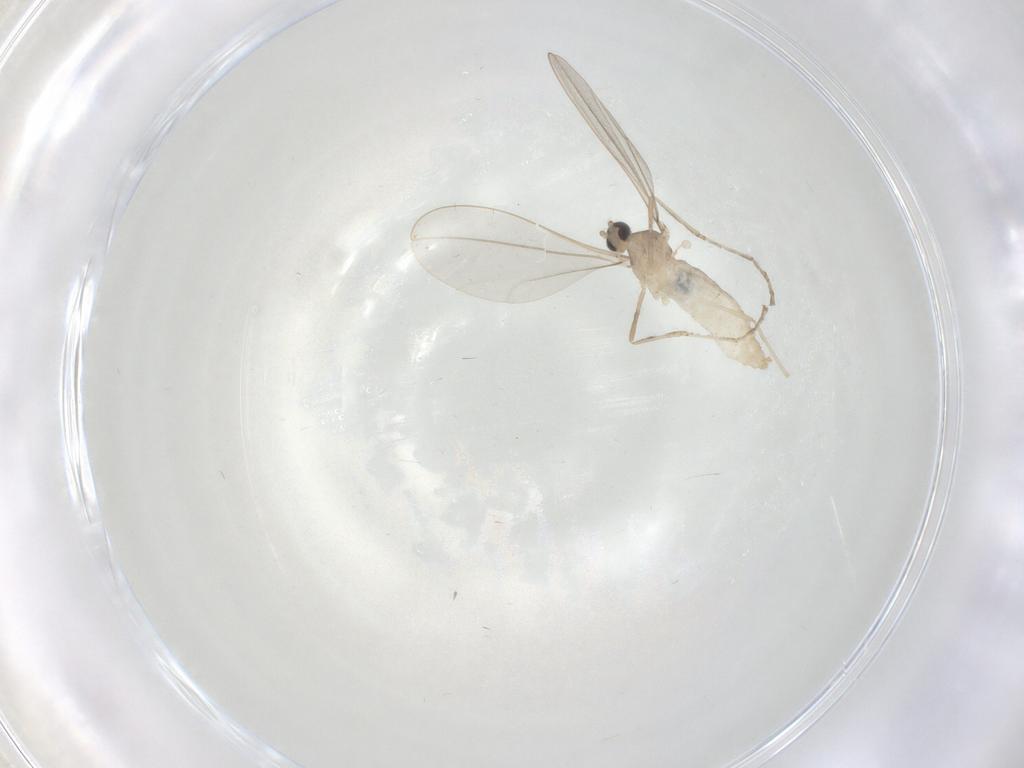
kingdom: Animalia
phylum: Arthropoda
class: Insecta
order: Diptera
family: Cecidomyiidae
